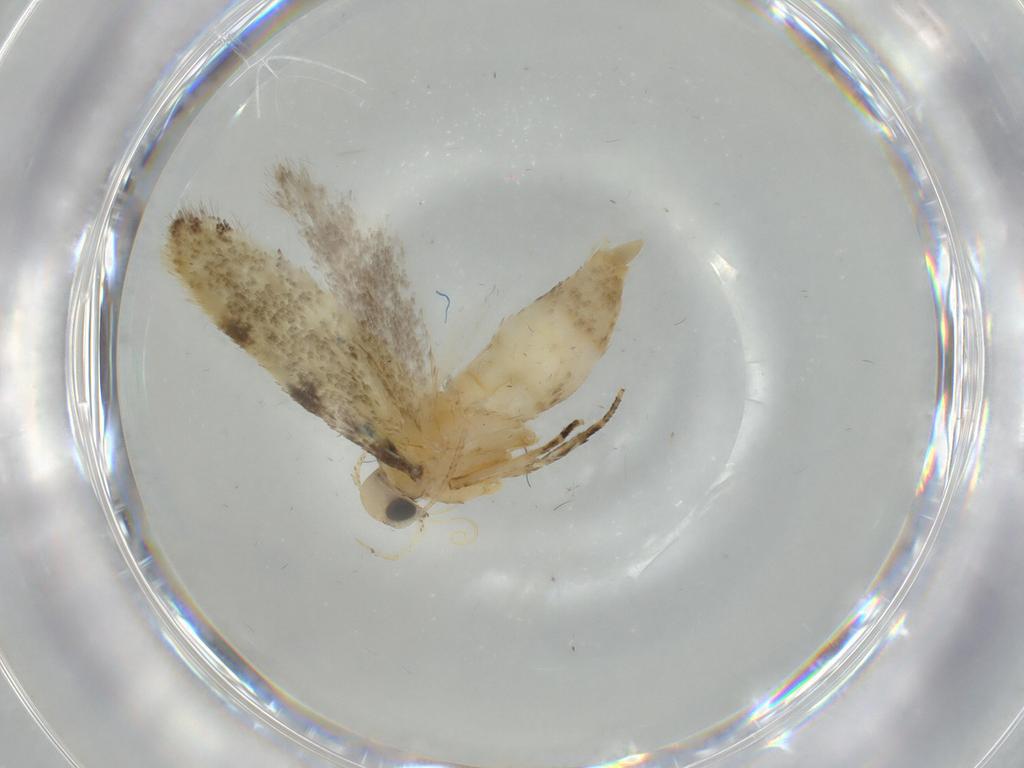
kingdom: Animalia
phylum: Arthropoda
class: Insecta
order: Lepidoptera
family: Autostichidae
